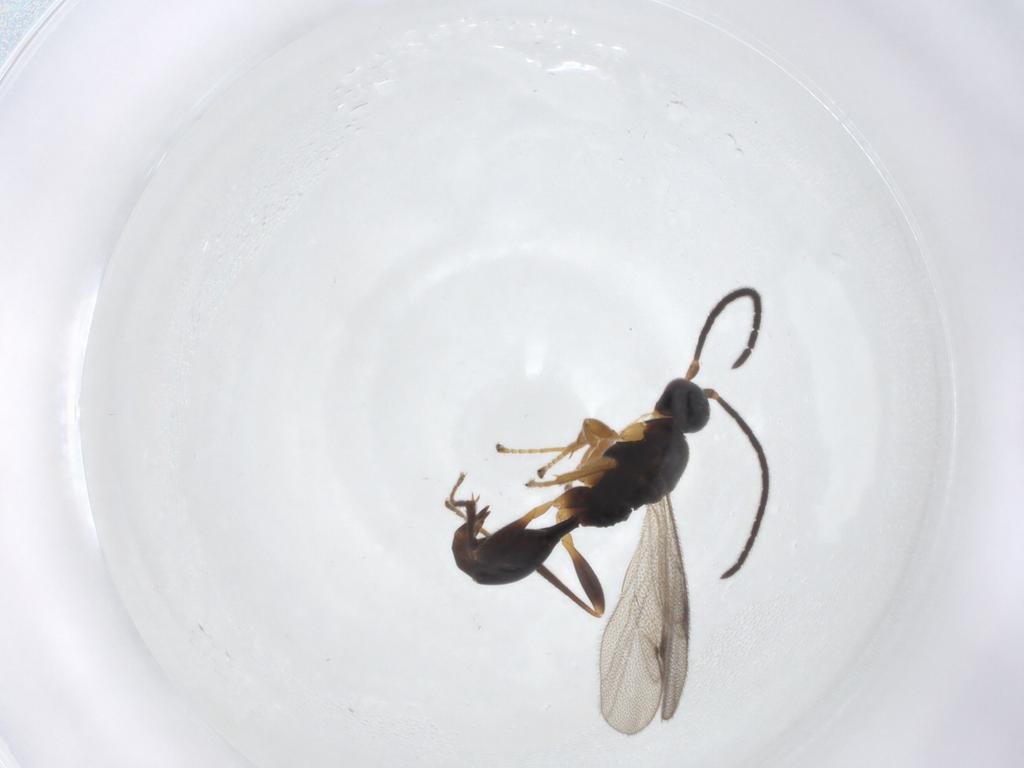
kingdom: Animalia
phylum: Arthropoda
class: Insecta
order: Hymenoptera
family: Proctotrupidae
